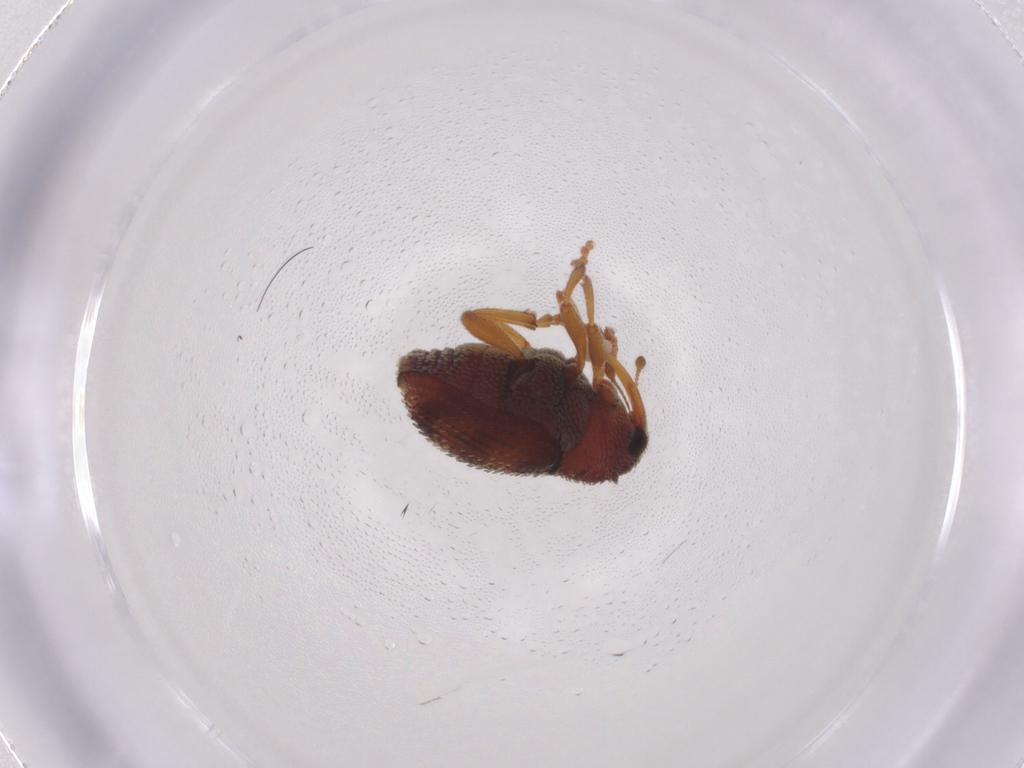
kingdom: Animalia
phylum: Arthropoda
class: Insecta
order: Coleoptera
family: Curculionidae
